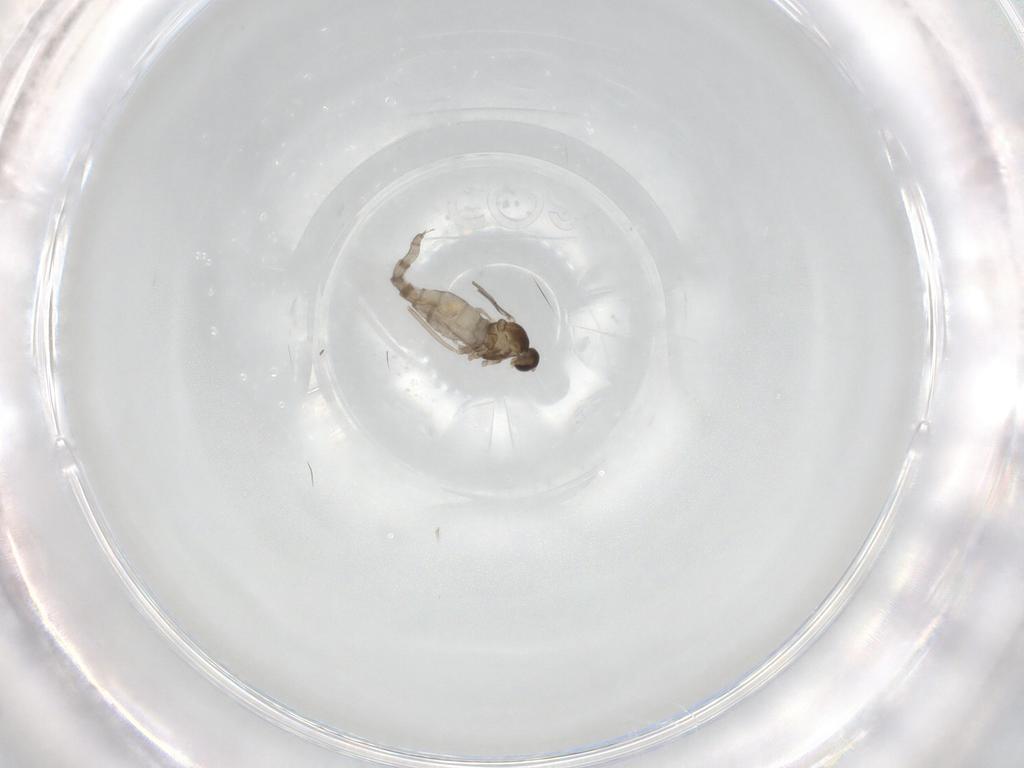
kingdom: Animalia
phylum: Arthropoda
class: Insecta
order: Diptera
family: Cecidomyiidae
